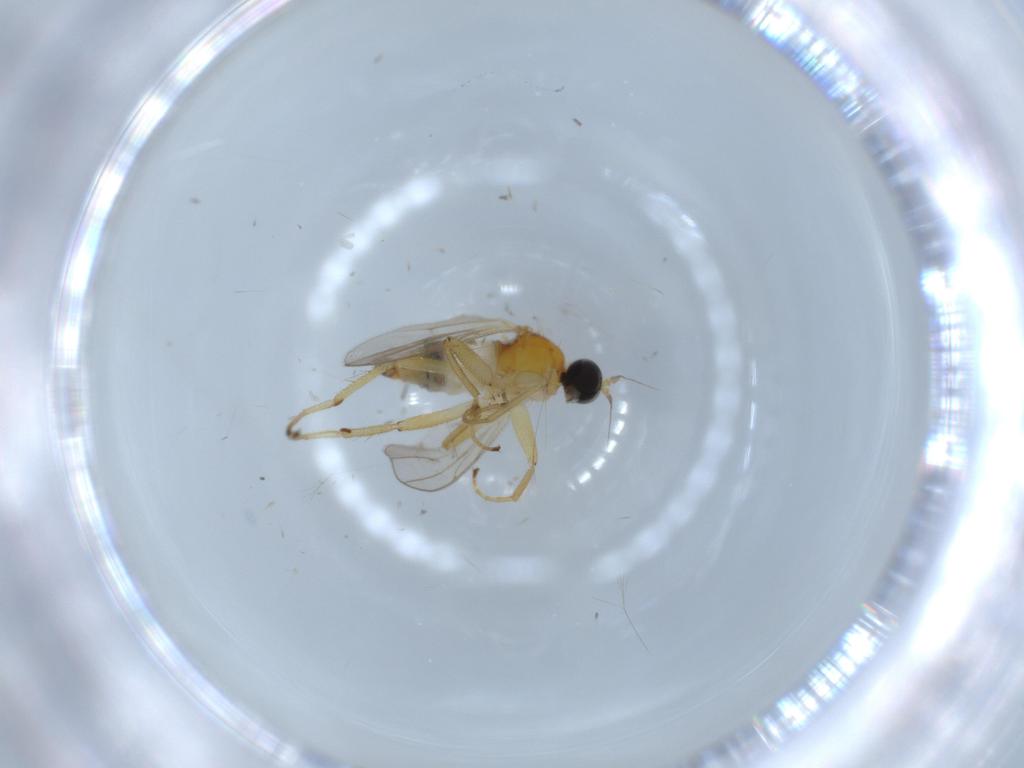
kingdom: Animalia
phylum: Arthropoda
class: Insecta
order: Diptera
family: Hybotidae
